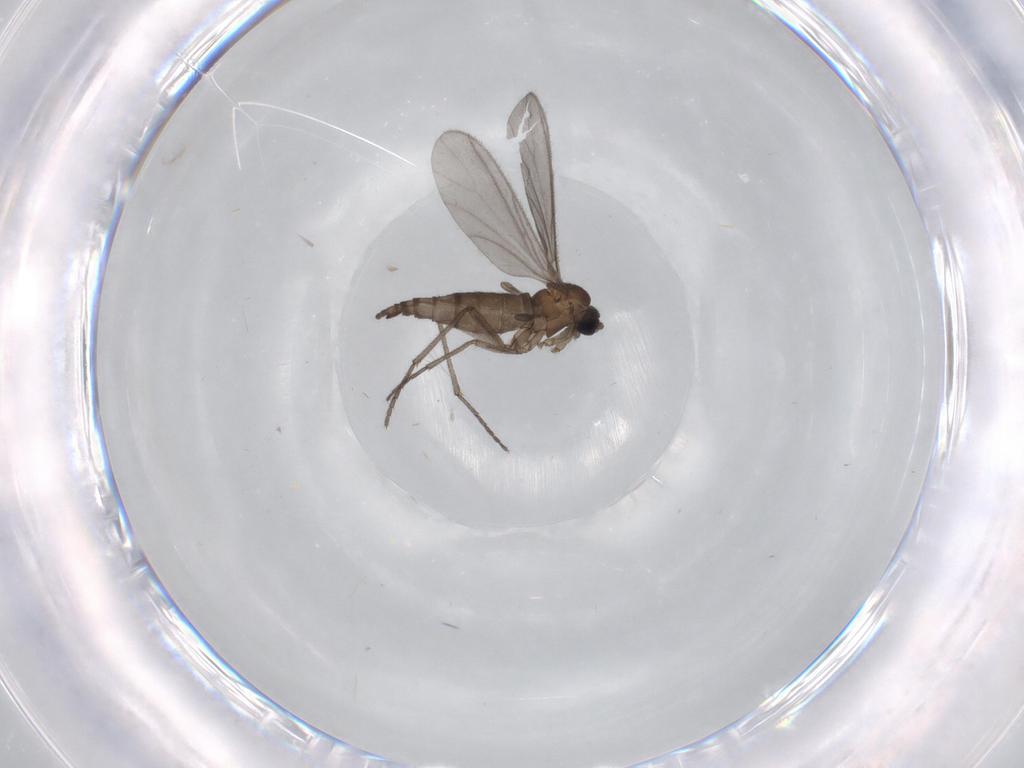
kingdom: Animalia
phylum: Arthropoda
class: Insecta
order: Diptera
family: Sciaridae
